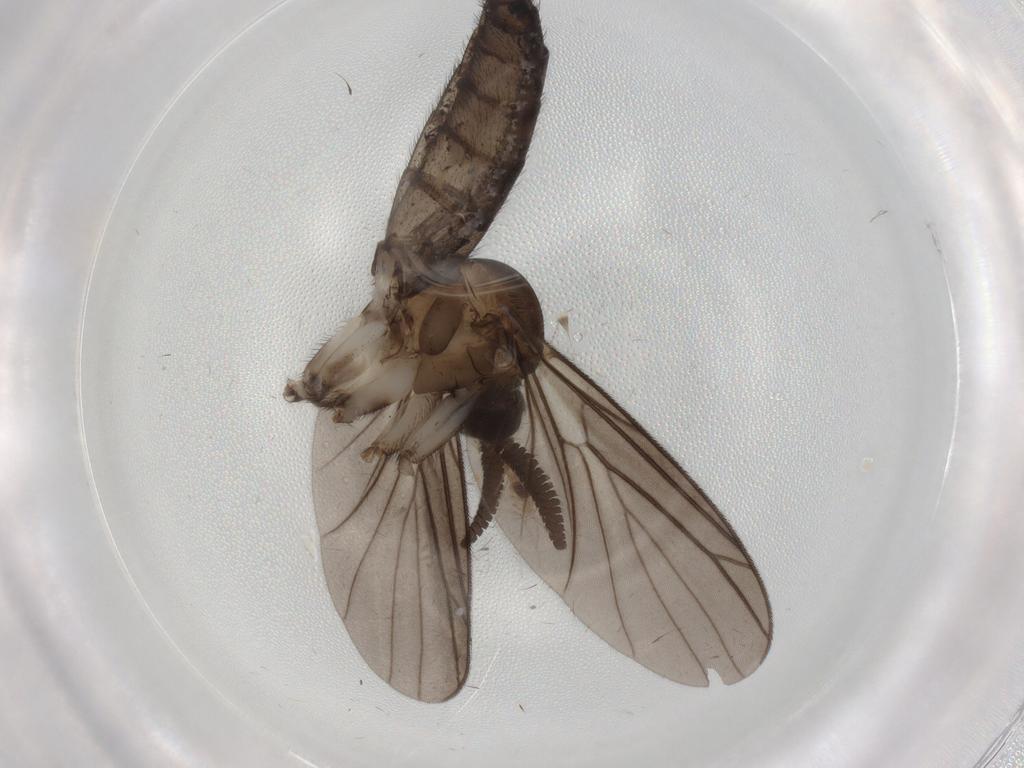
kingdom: Animalia
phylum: Arthropoda
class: Insecta
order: Diptera
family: Keroplatidae
